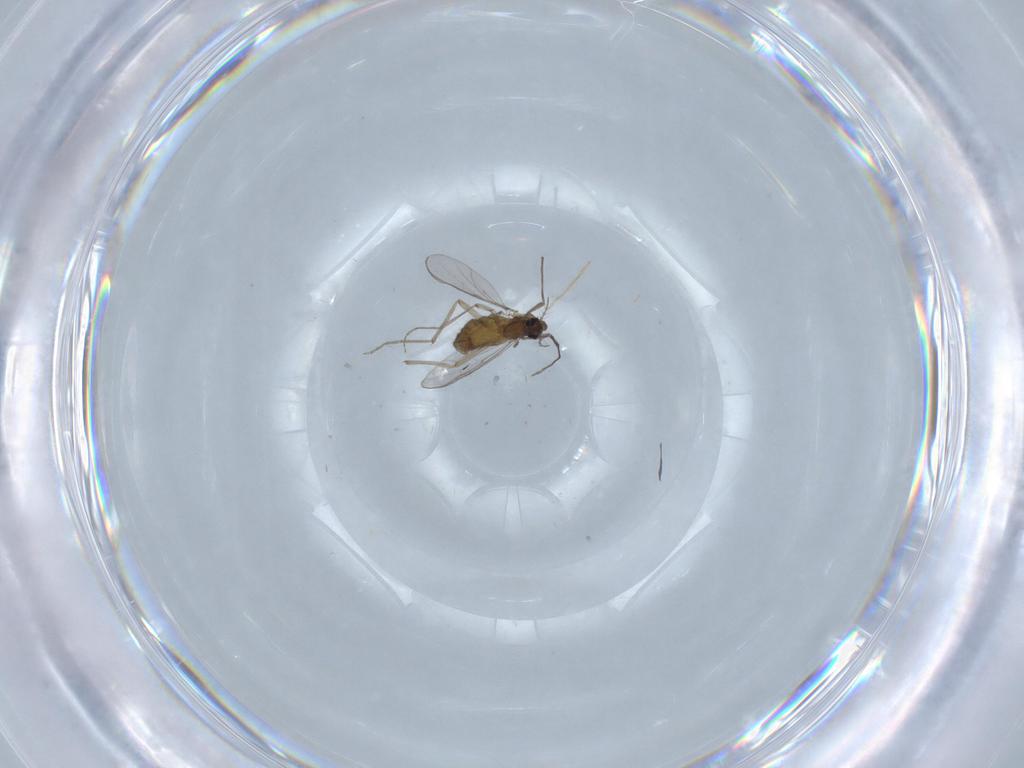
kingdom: Animalia
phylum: Arthropoda
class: Insecta
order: Diptera
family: Chironomidae
